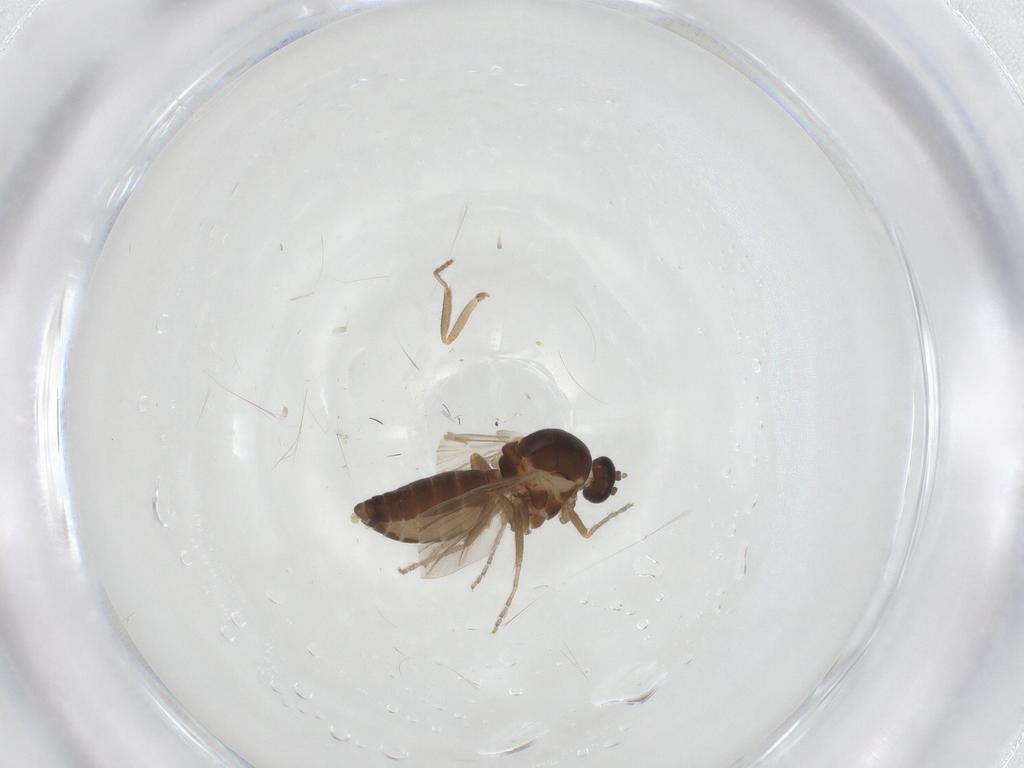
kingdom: Animalia
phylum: Arthropoda
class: Insecta
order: Diptera
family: Ceratopogonidae
